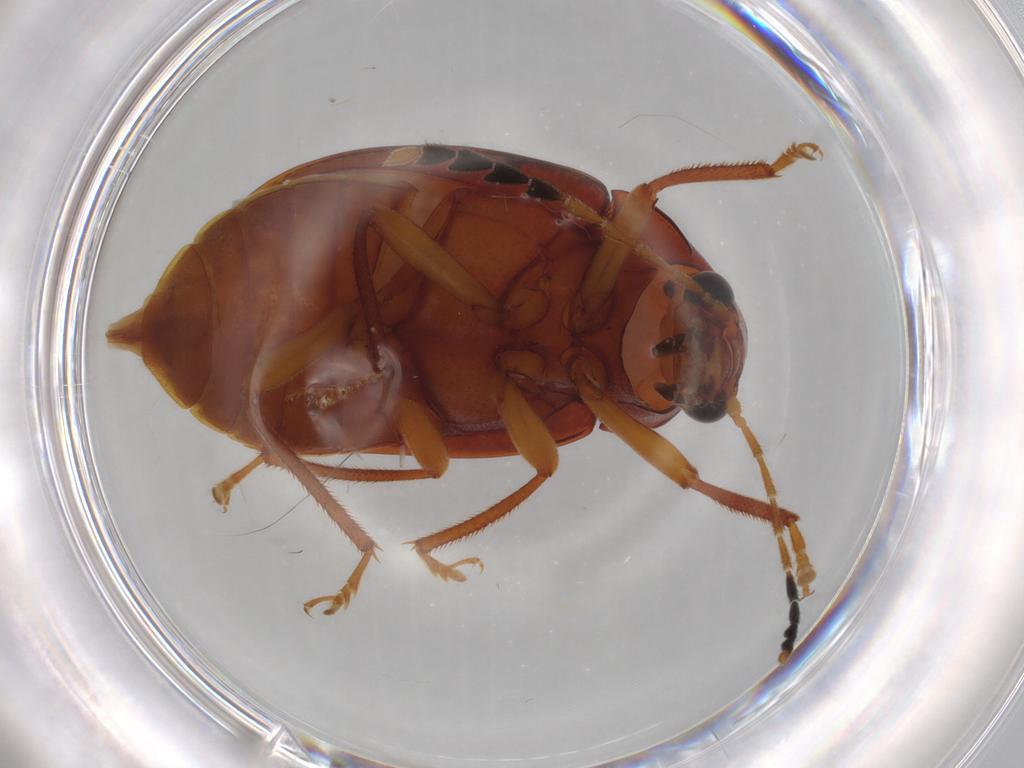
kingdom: Animalia
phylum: Arthropoda
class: Insecta
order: Coleoptera
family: Ptilodactylidae
